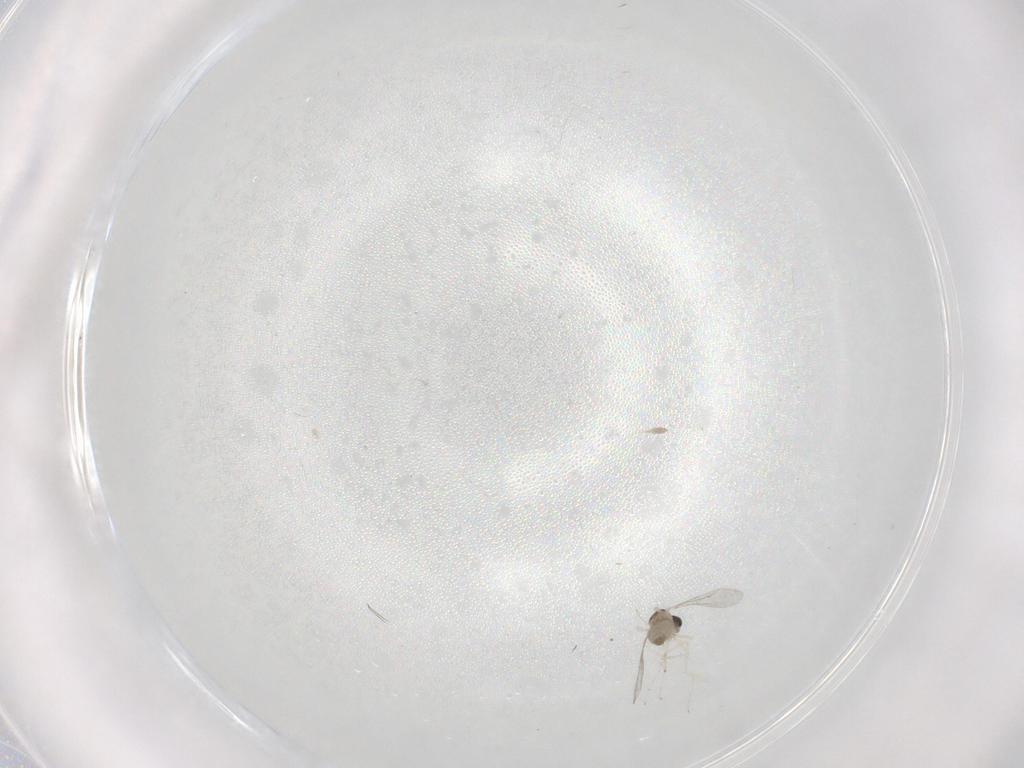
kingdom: Animalia
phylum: Arthropoda
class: Insecta
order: Diptera
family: Cecidomyiidae
